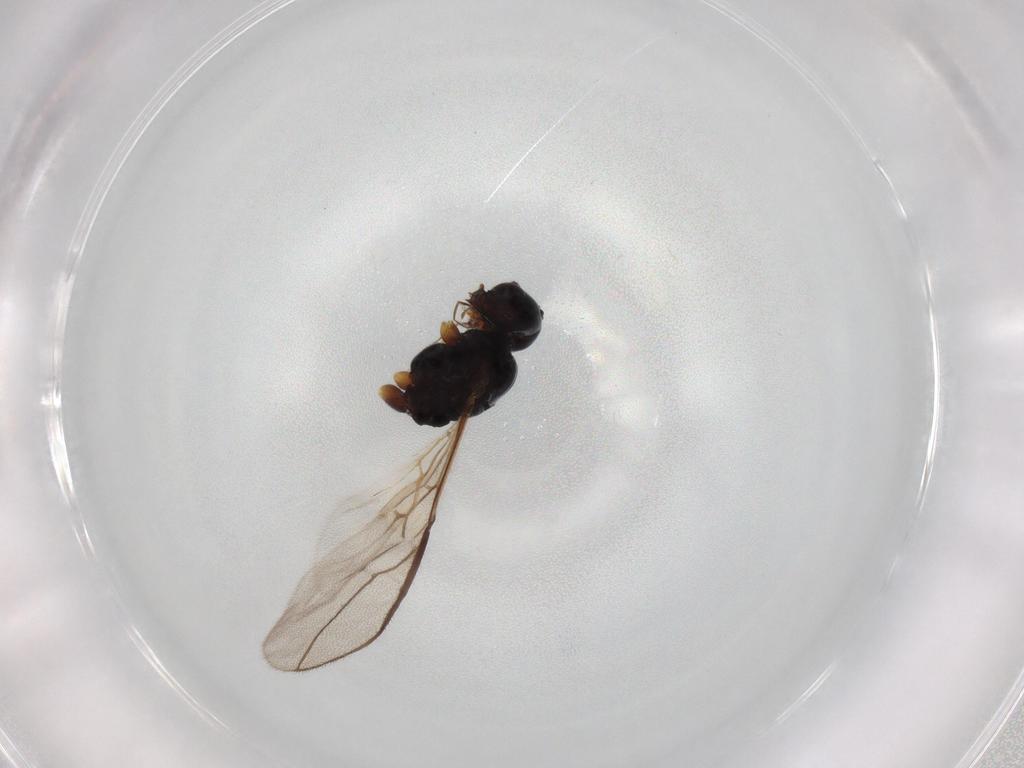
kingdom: Animalia
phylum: Arthropoda
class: Insecta
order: Hymenoptera
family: Braconidae
